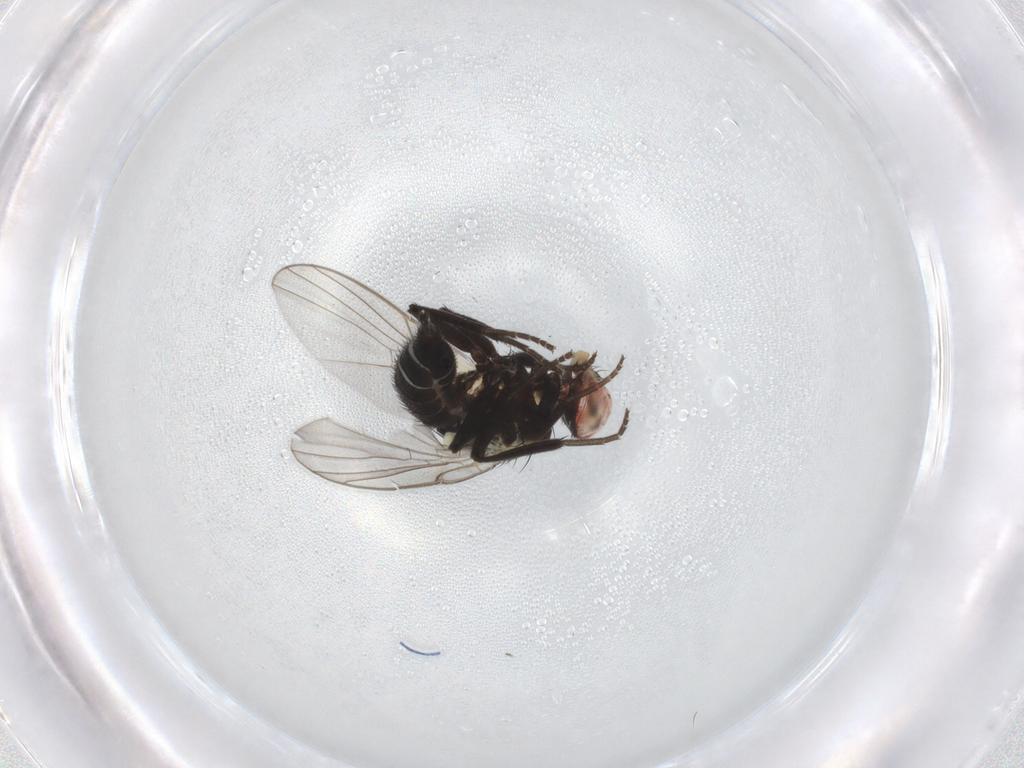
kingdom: Animalia
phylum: Arthropoda
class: Insecta
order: Diptera
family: Agromyzidae
